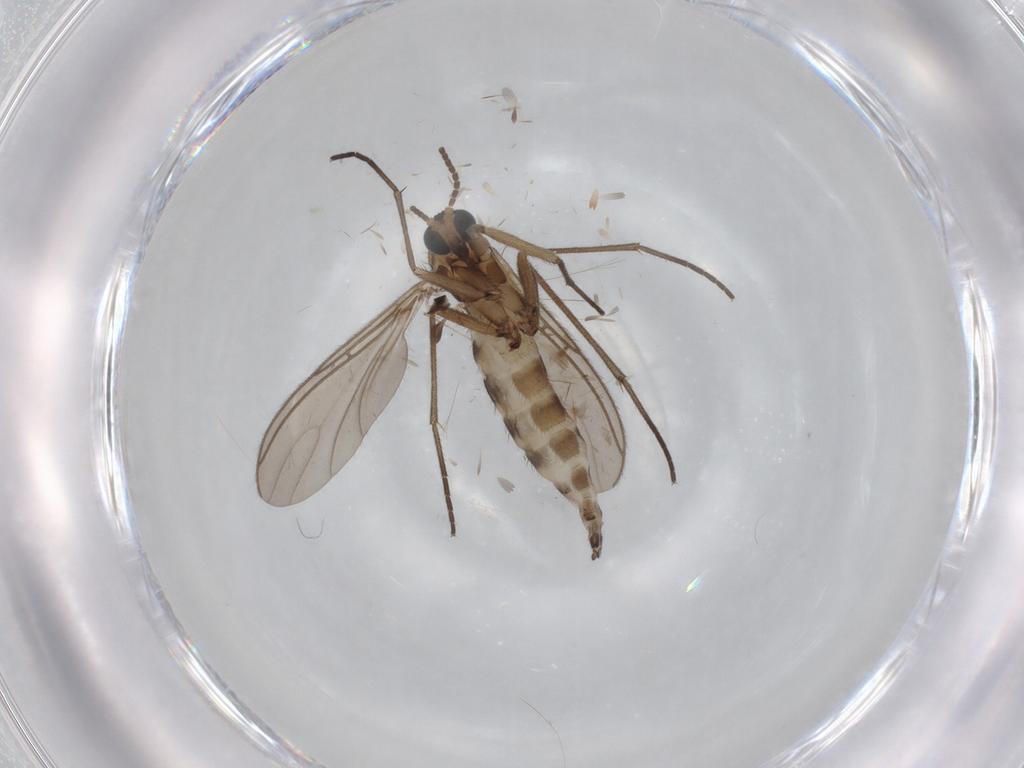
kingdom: Animalia
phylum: Arthropoda
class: Insecta
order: Diptera
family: Sciaridae
